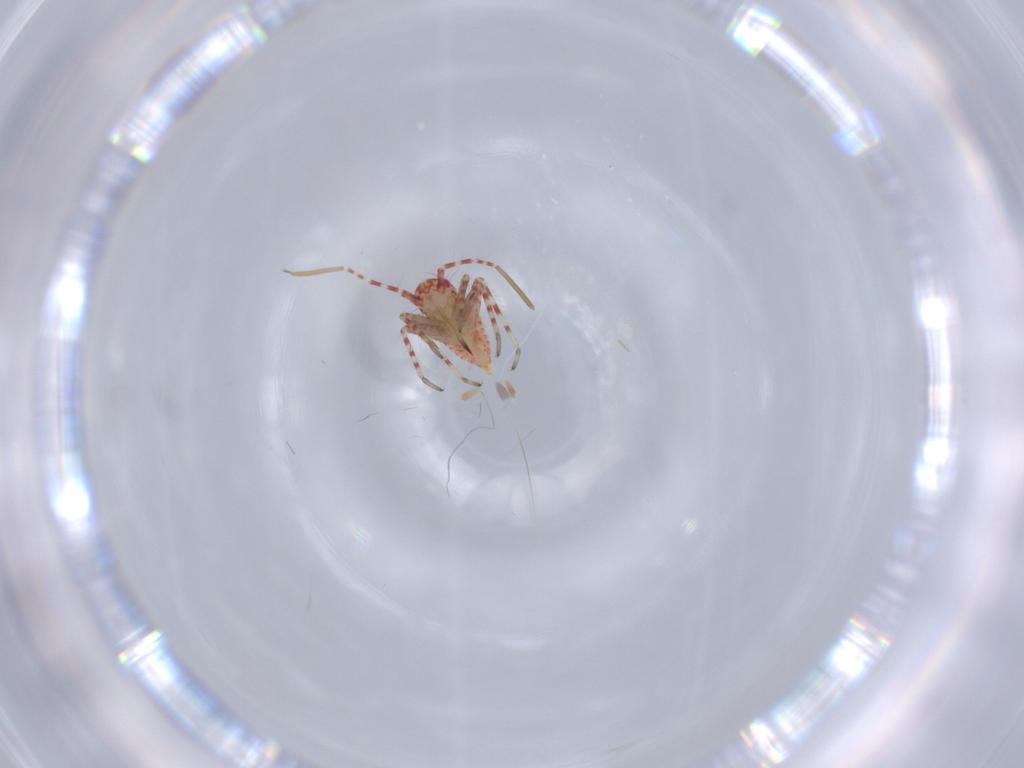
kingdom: Animalia
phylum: Arthropoda
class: Insecta
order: Hemiptera
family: Miridae
